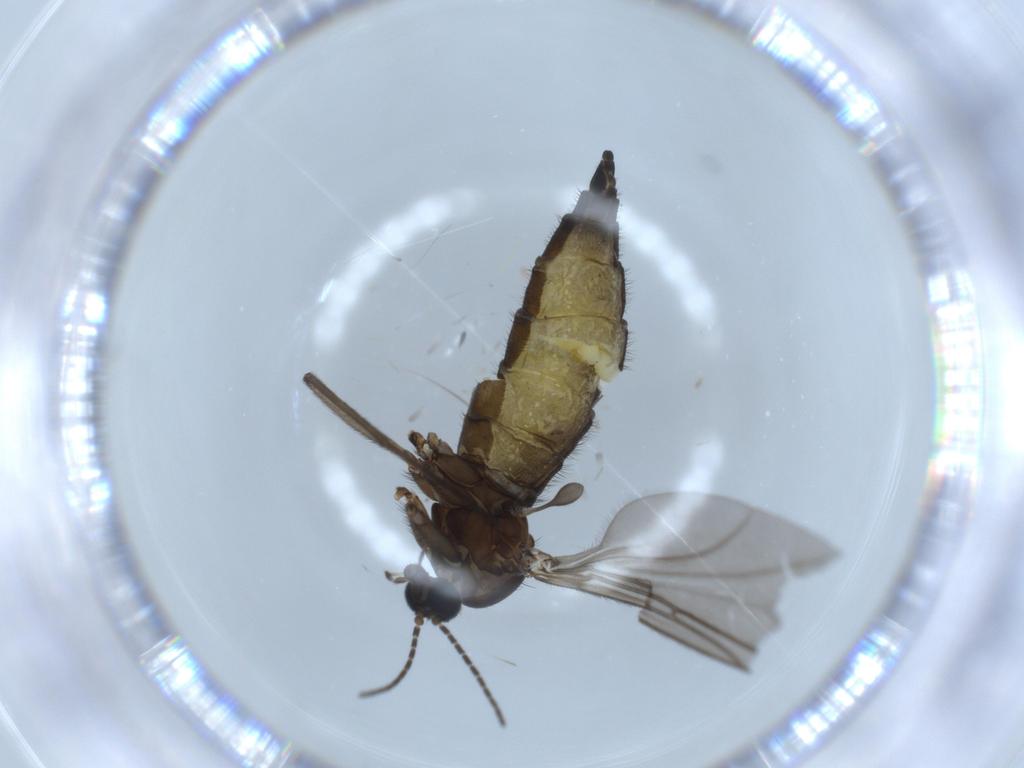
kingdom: Animalia
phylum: Arthropoda
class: Insecta
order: Diptera
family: Sciaridae
